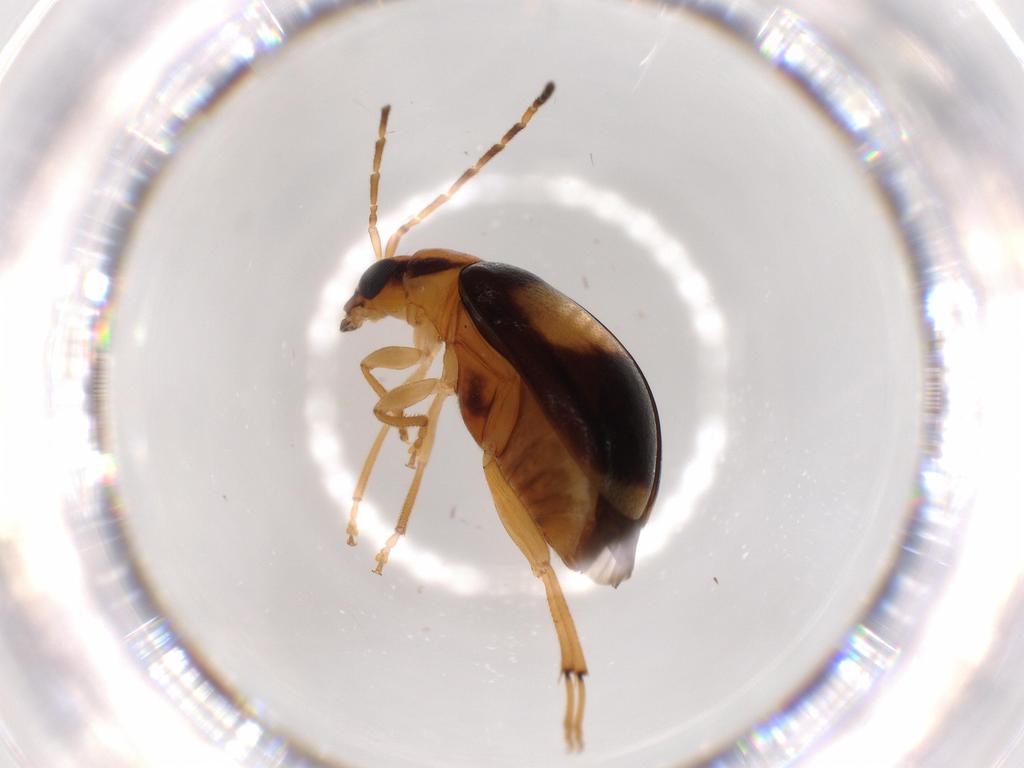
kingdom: Animalia
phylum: Arthropoda
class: Insecta
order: Coleoptera
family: Chrysomelidae
